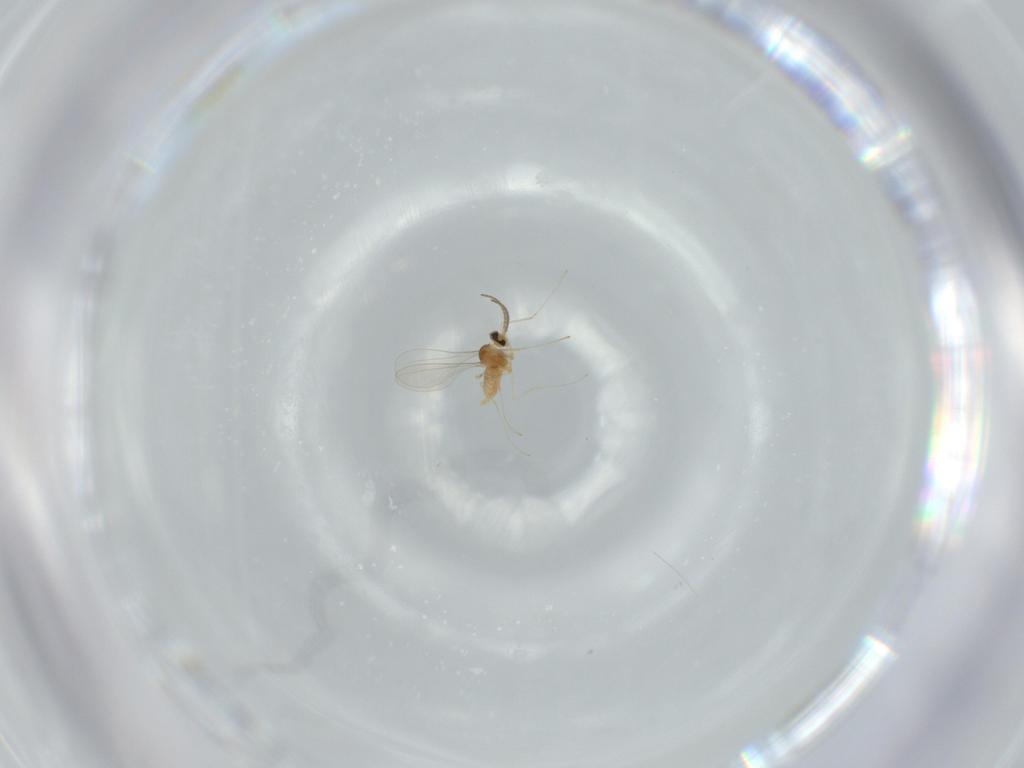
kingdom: Animalia
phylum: Arthropoda
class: Insecta
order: Diptera
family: Cecidomyiidae
